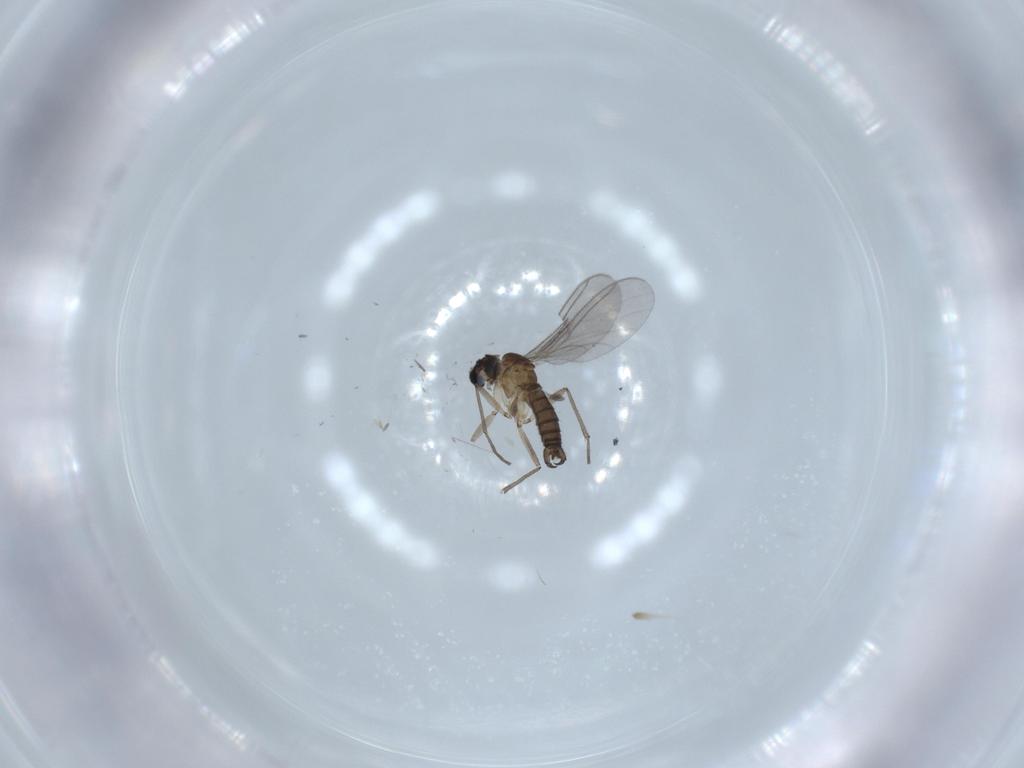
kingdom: Animalia
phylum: Arthropoda
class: Insecta
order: Diptera
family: Sciaridae
